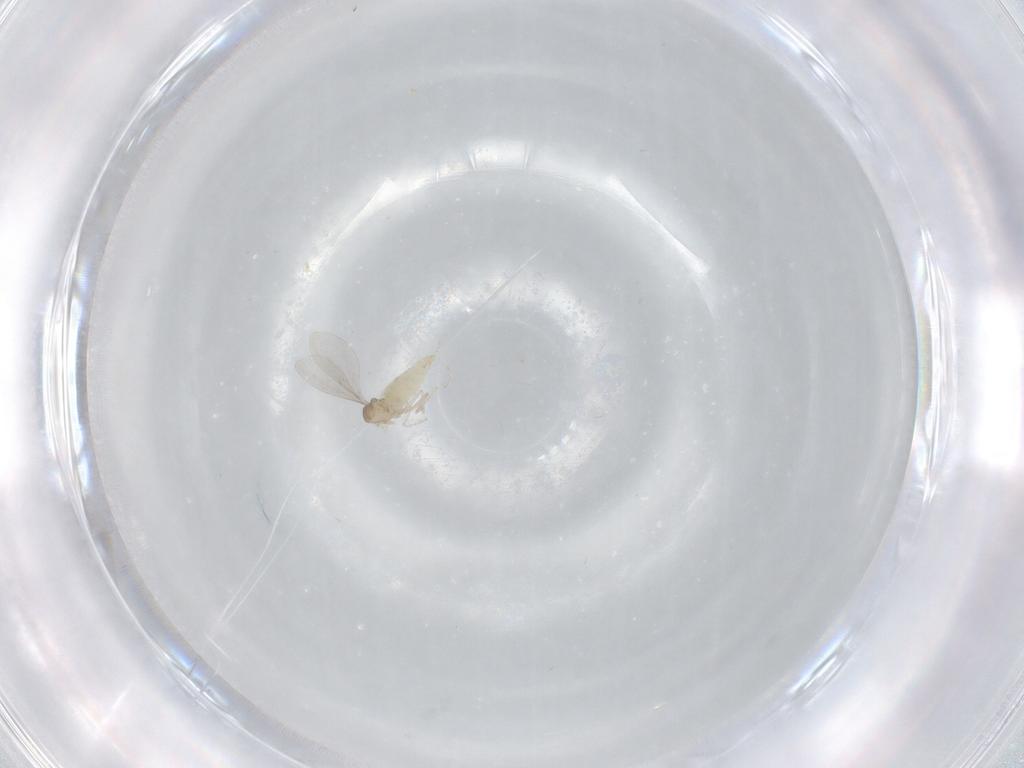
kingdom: Animalia
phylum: Arthropoda
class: Insecta
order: Diptera
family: Cecidomyiidae
